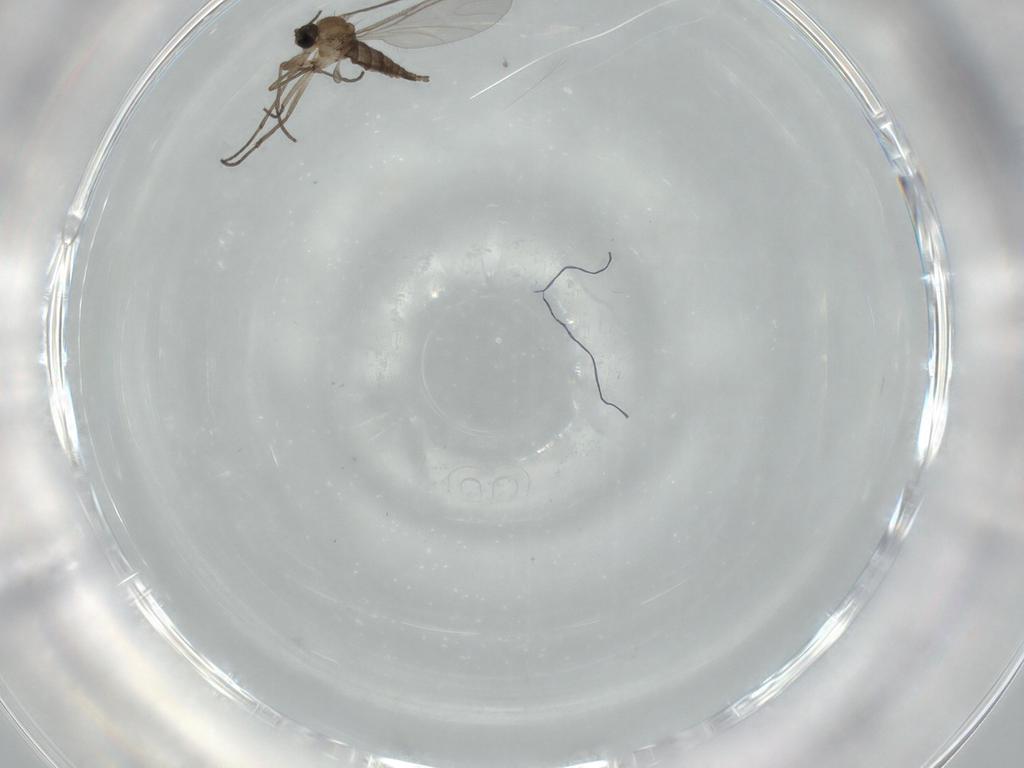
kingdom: Animalia
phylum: Arthropoda
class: Insecta
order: Diptera
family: Sciaridae
